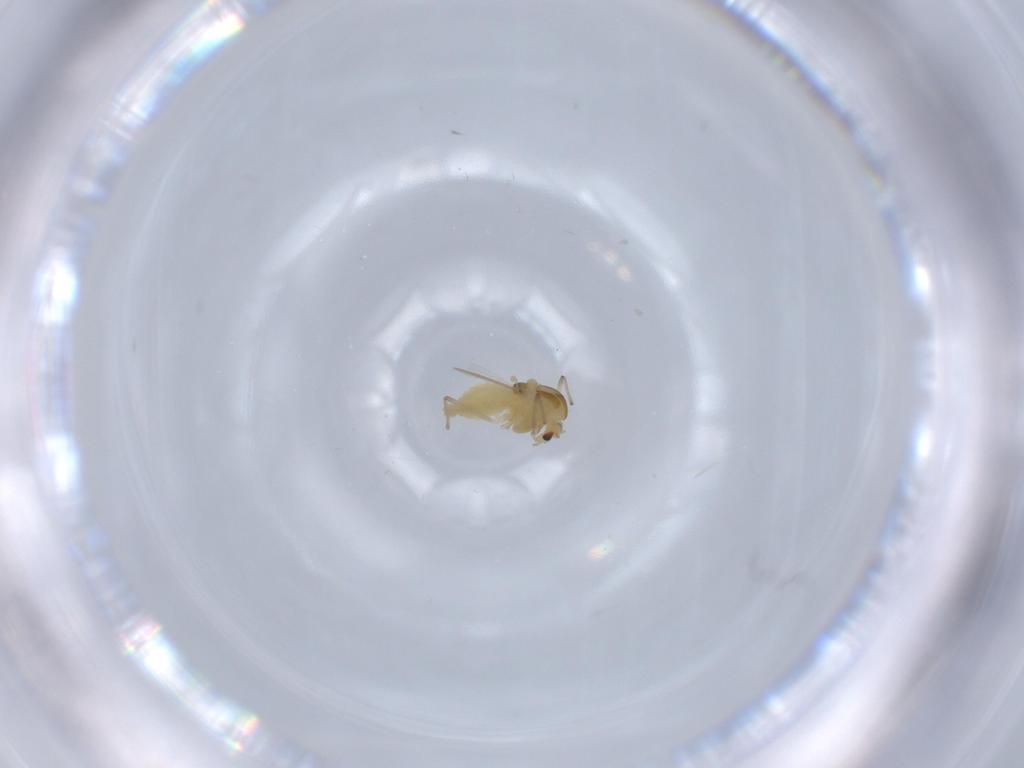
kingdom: Animalia
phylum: Arthropoda
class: Insecta
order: Diptera
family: Chironomidae
